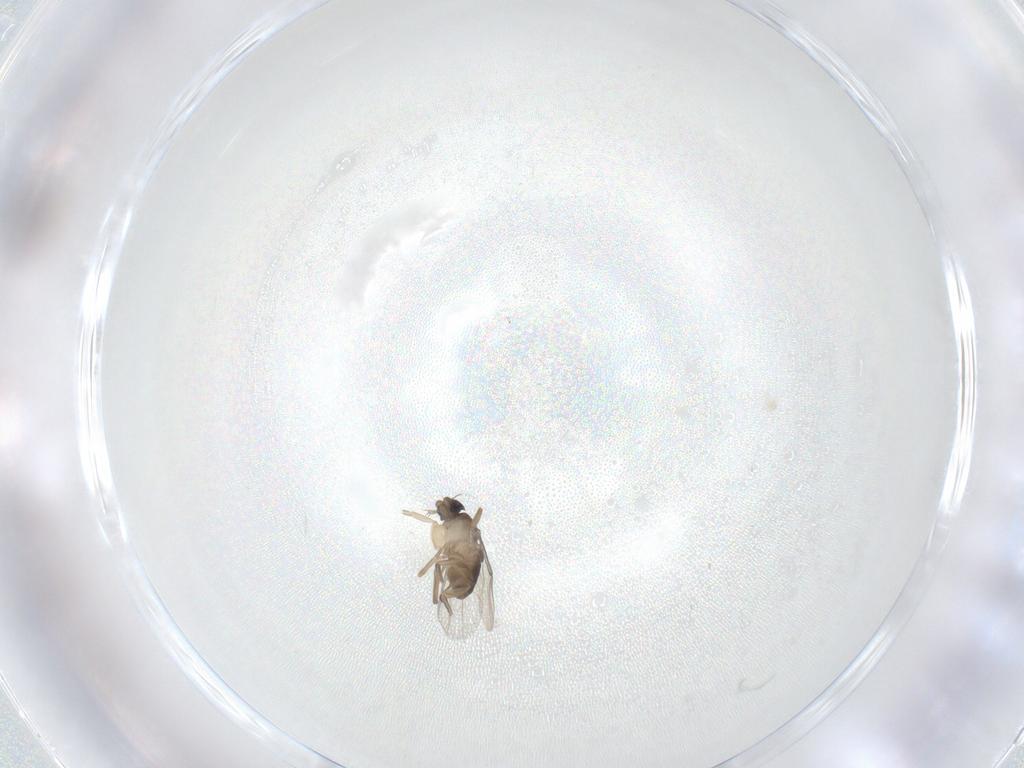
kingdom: Animalia
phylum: Arthropoda
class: Insecta
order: Diptera
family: Phoridae
